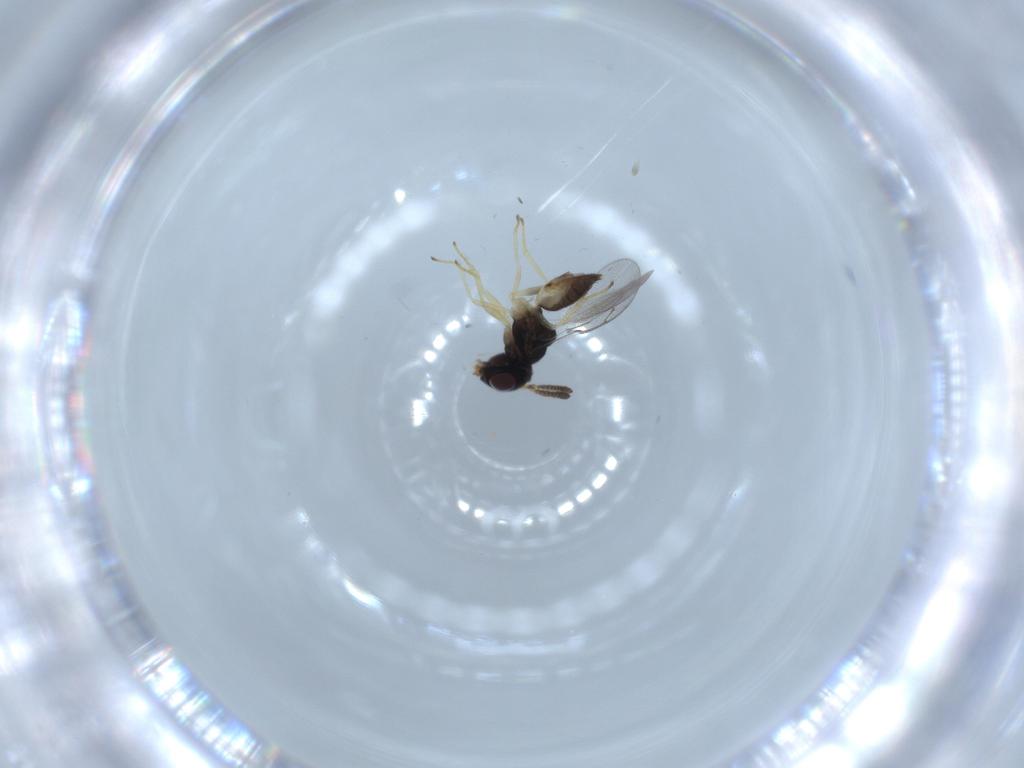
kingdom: Animalia
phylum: Arthropoda
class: Insecta
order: Hymenoptera
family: Pteromalidae
